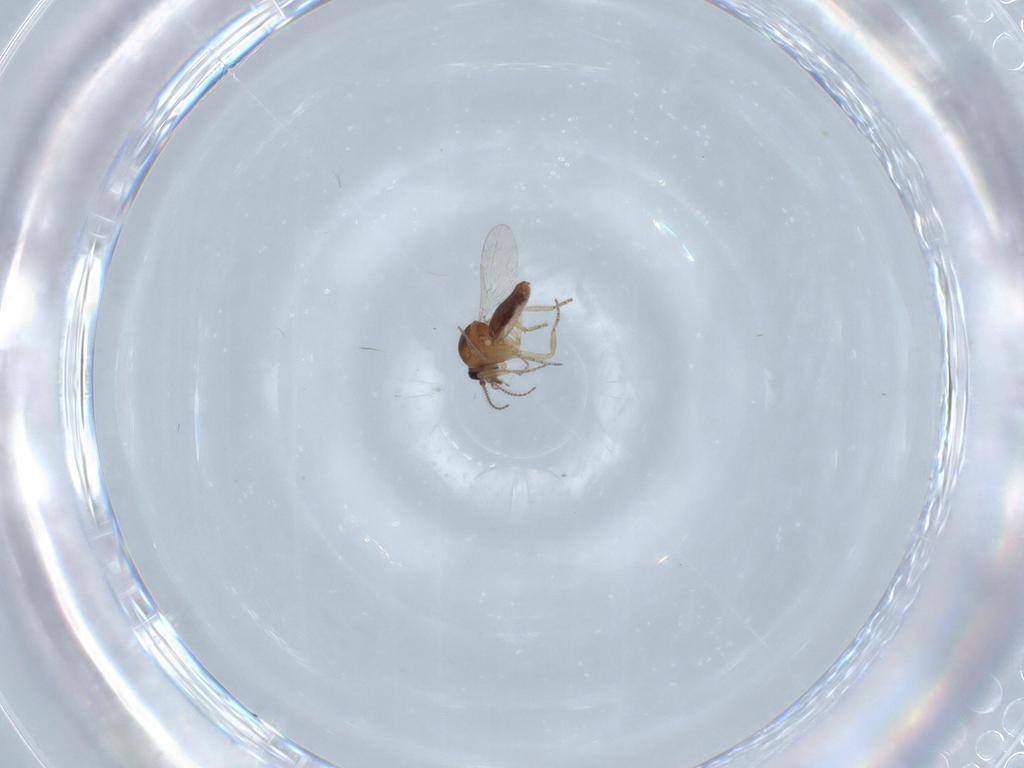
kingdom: Animalia
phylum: Arthropoda
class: Insecta
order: Diptera
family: Ceratopogonidae
